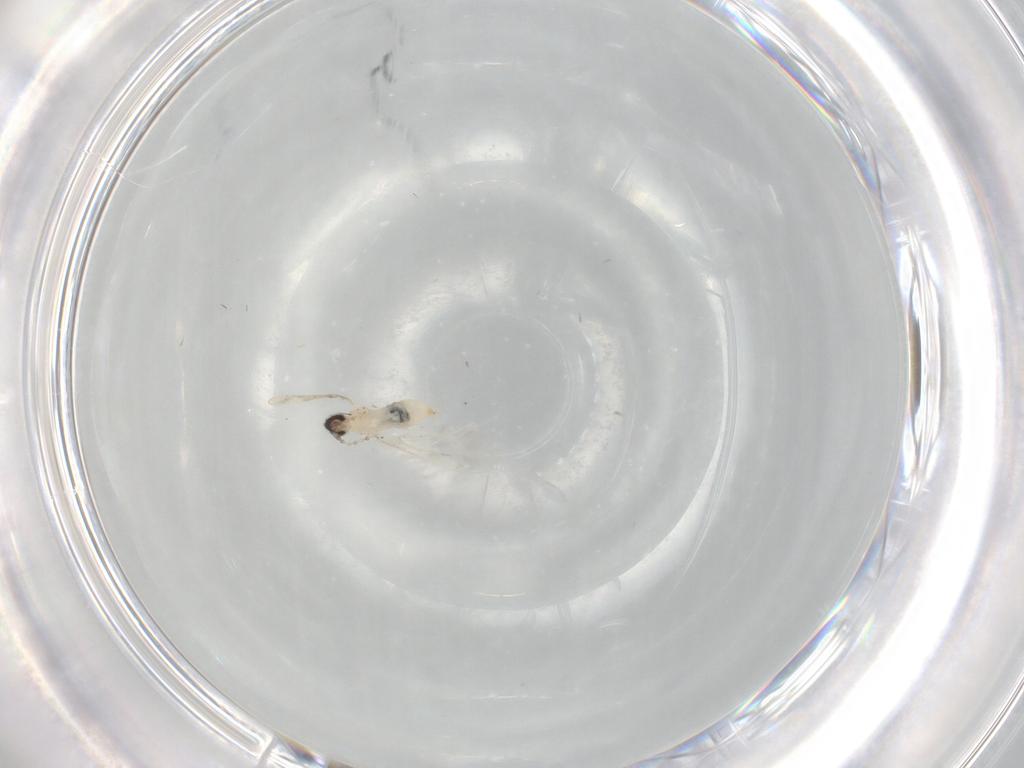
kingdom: Animalia
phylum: Arthropoda
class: Insecta
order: Diptera
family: Cecidomyiidae
